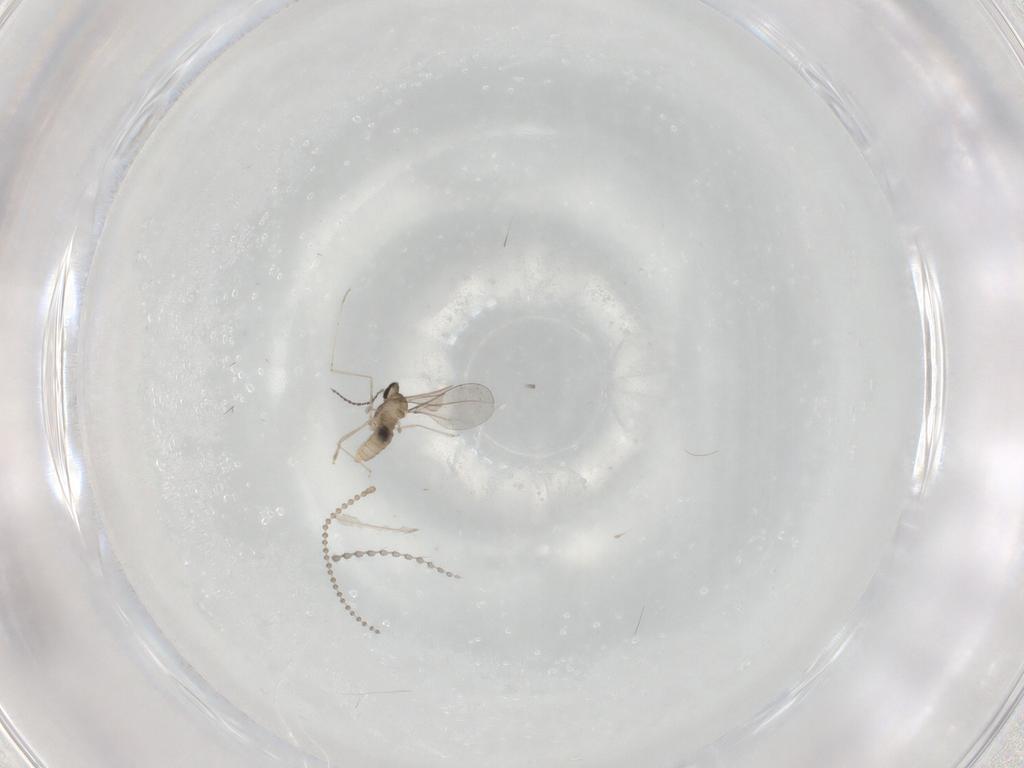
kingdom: Animalia
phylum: Arthropoda
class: Insecta
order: Diptera
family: Cecidomyiidae
